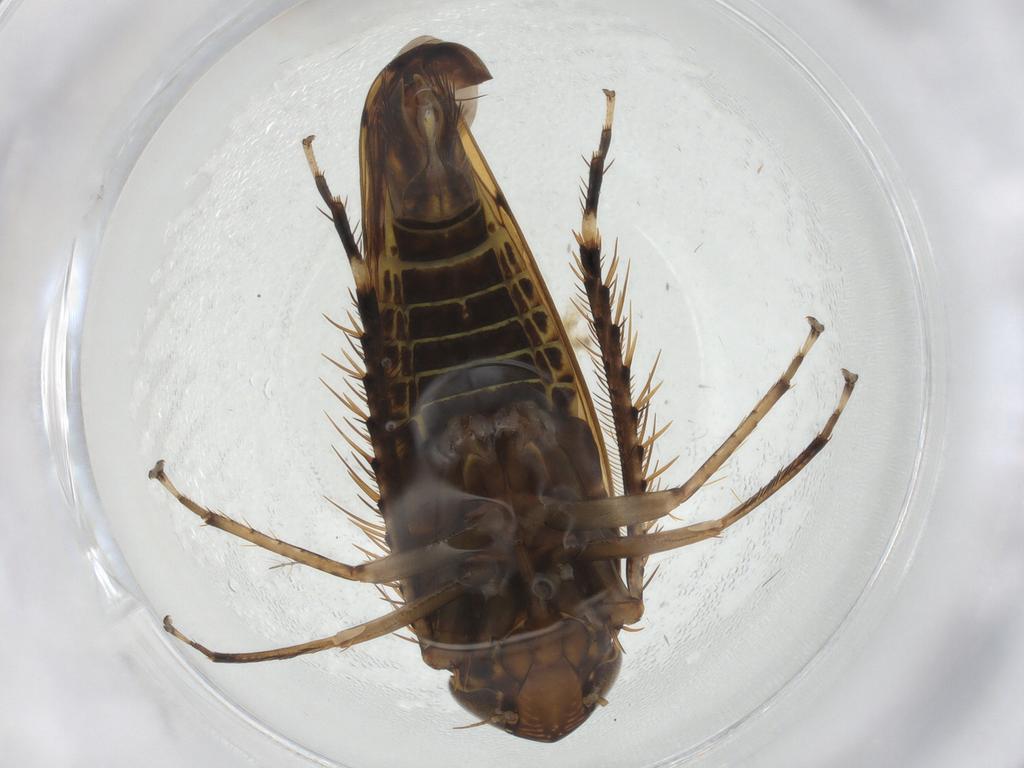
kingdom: Animalia
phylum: Arthropoda
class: Insecta
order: Hemiptera
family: Cicadellidae
